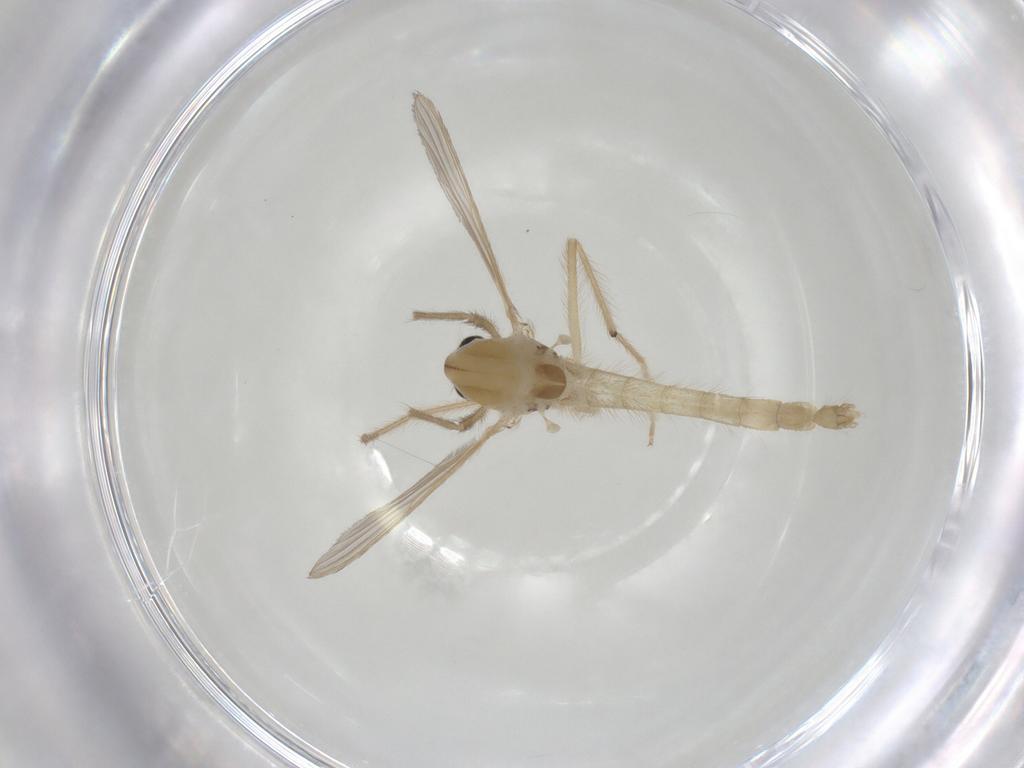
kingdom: Animalia
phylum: Arthropoda
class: Insecta
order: Diptera
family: Chironomidae
